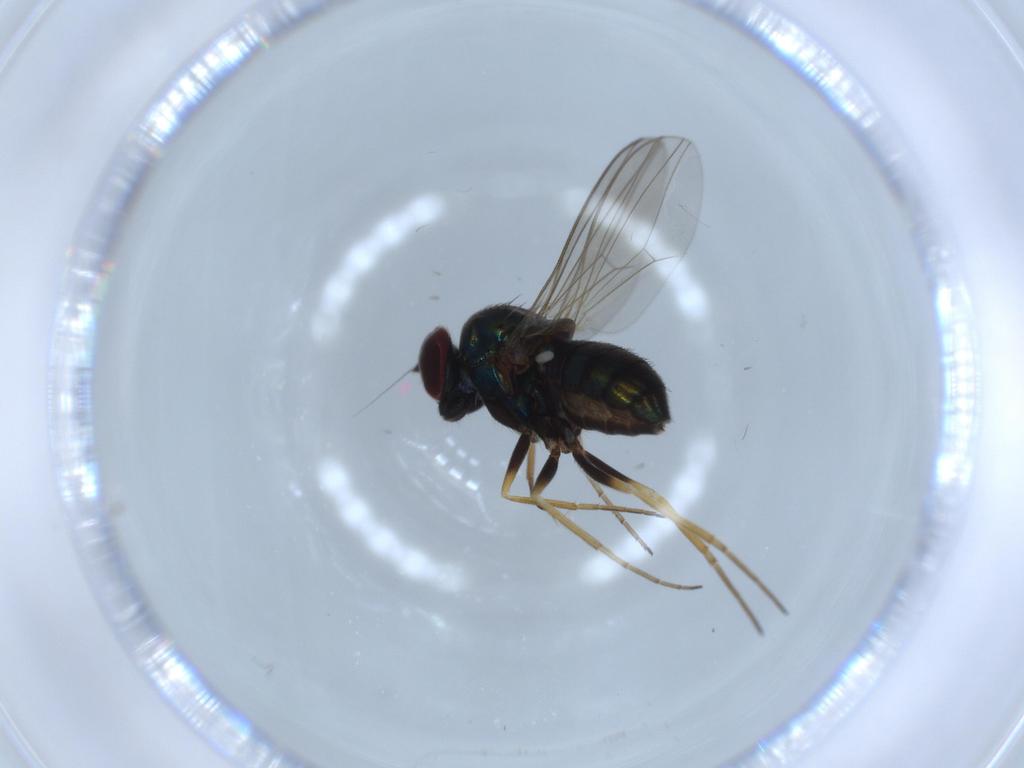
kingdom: Animalia
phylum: Arthropoda
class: Insecta
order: Diptera
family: Dolichopodidae
